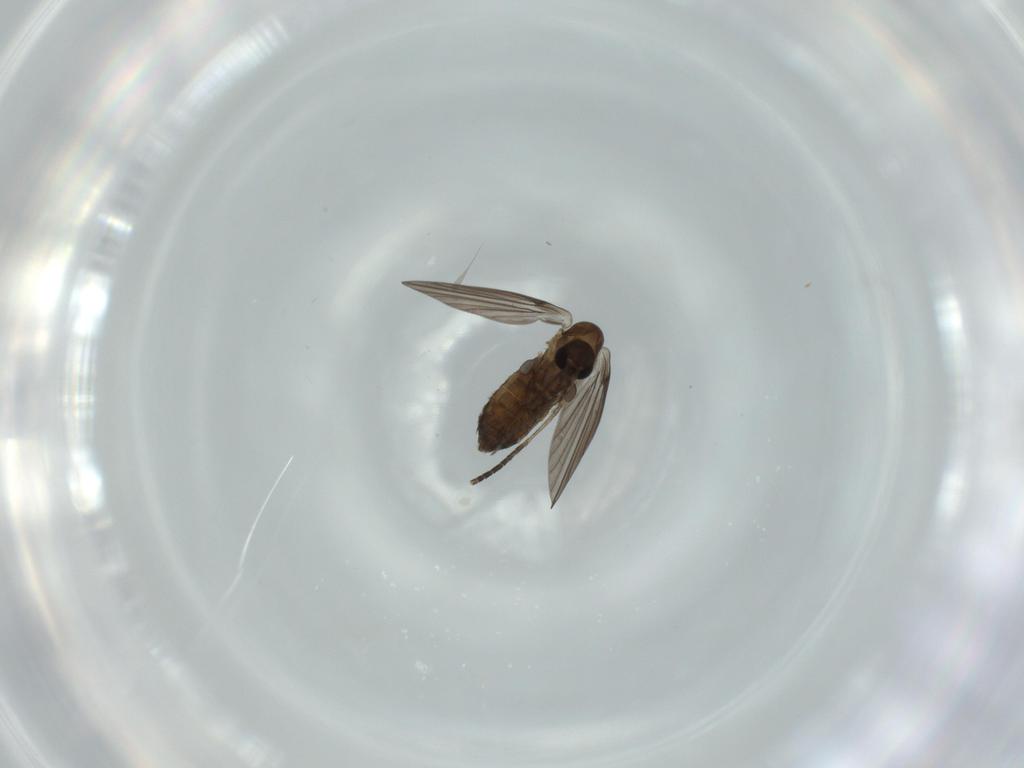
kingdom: Animalia
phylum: Arthropoda
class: Insecta
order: Diptera
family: Psychodidae
